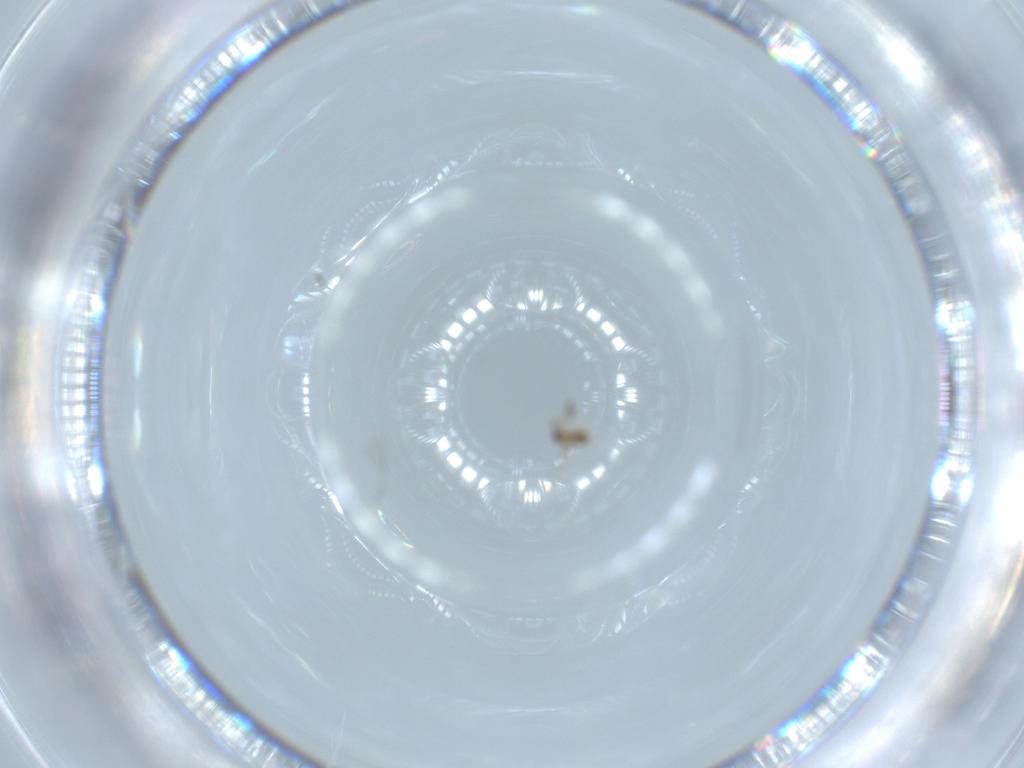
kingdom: Animalia
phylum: Arthropoda
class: Insecta
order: Hymenoptera
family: Mymaridae
